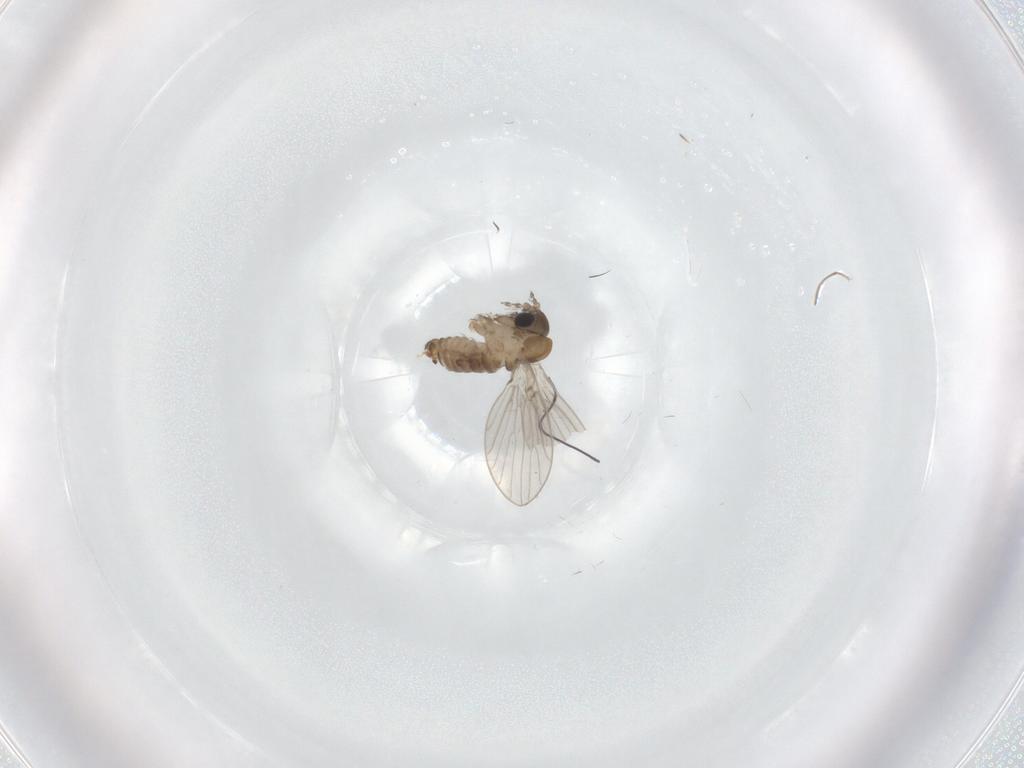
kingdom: Animalia
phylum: Arthropoda
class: Insecta
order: Diptera
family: Psychodidae
